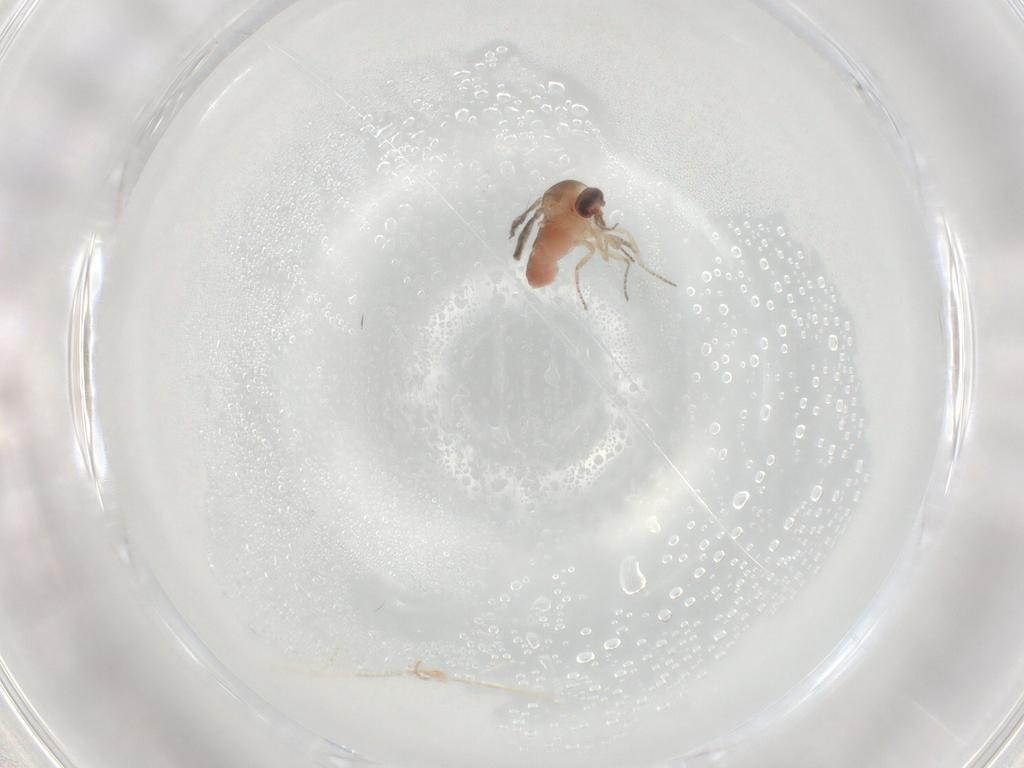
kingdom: Animalia
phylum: Arthropoda
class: Insecta
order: Diptera
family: Ceratopogonidae
